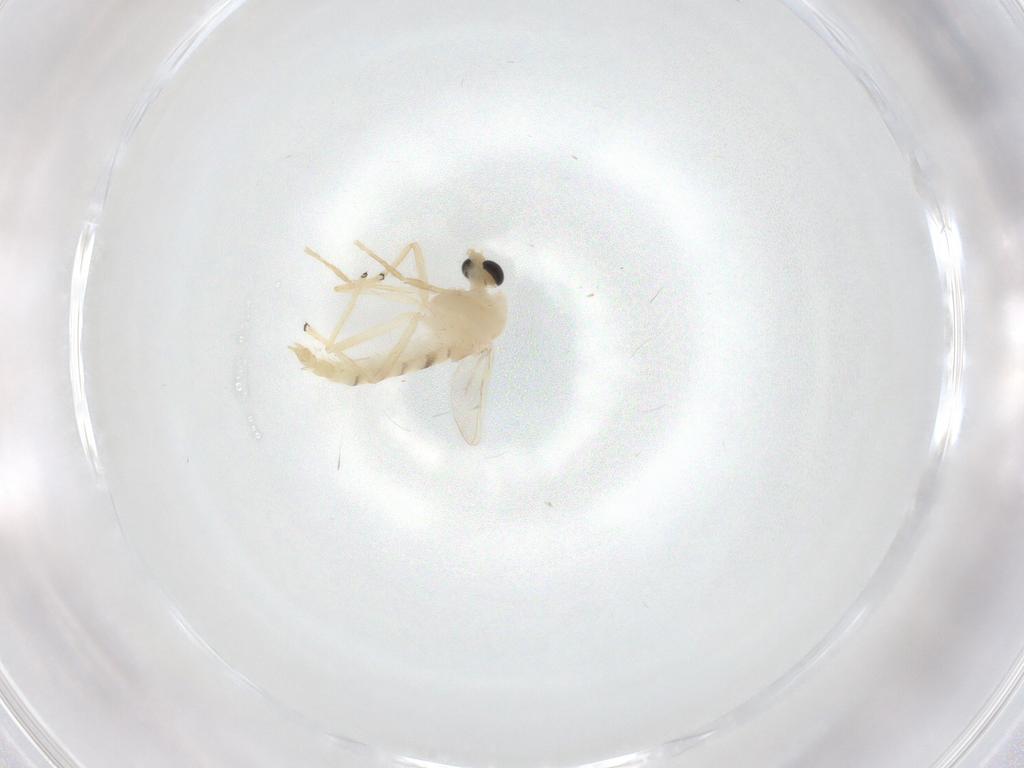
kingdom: Animalia
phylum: Arthropoda
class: Insecta
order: Diptera
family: Chironomidae
